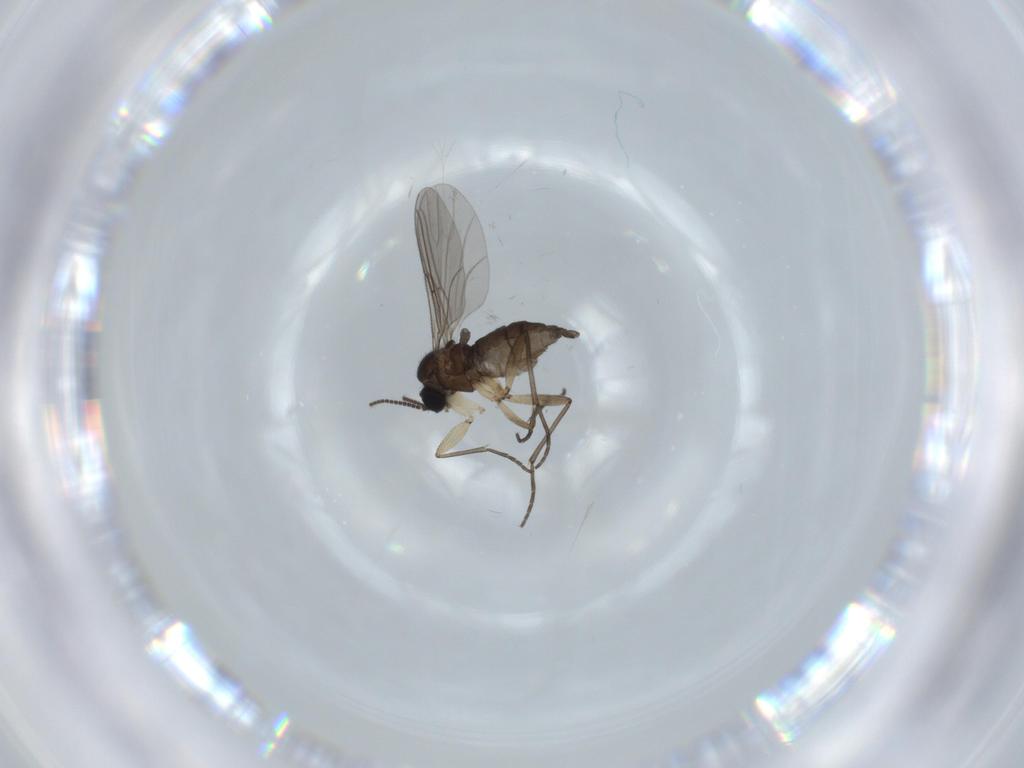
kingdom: Animalia
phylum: Arthropoda
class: Insecta
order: Diptera
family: Sciaridae
